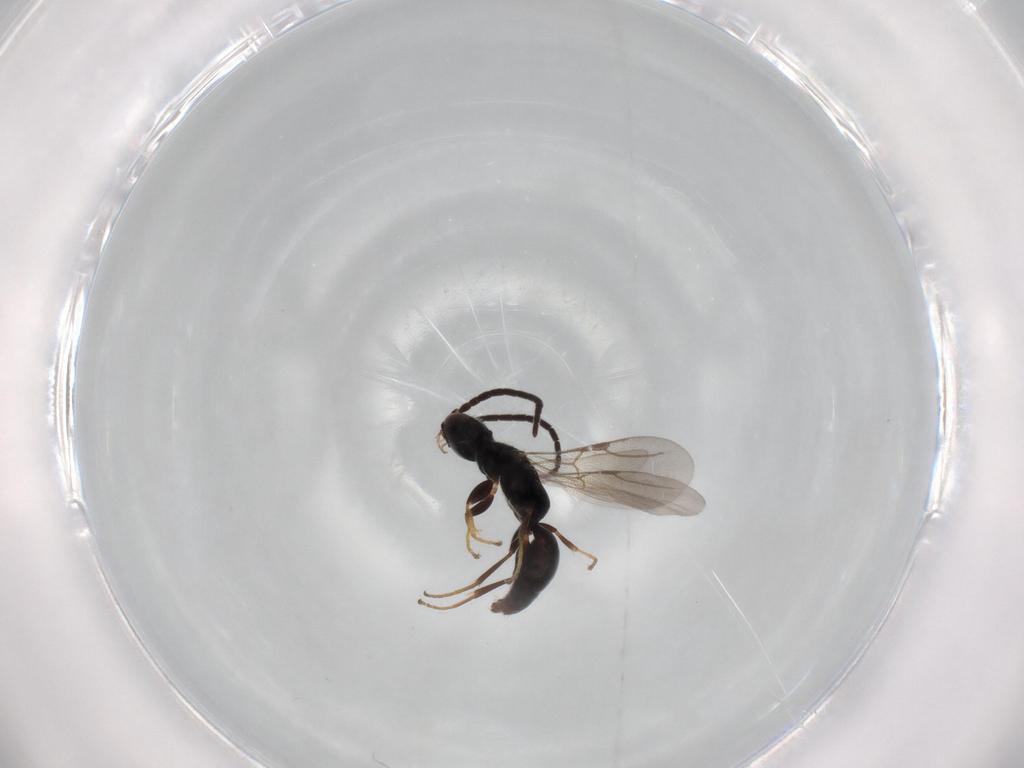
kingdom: Animalia
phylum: Arthropoda
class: Insecta
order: Hymenoptera
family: Bethylidae
